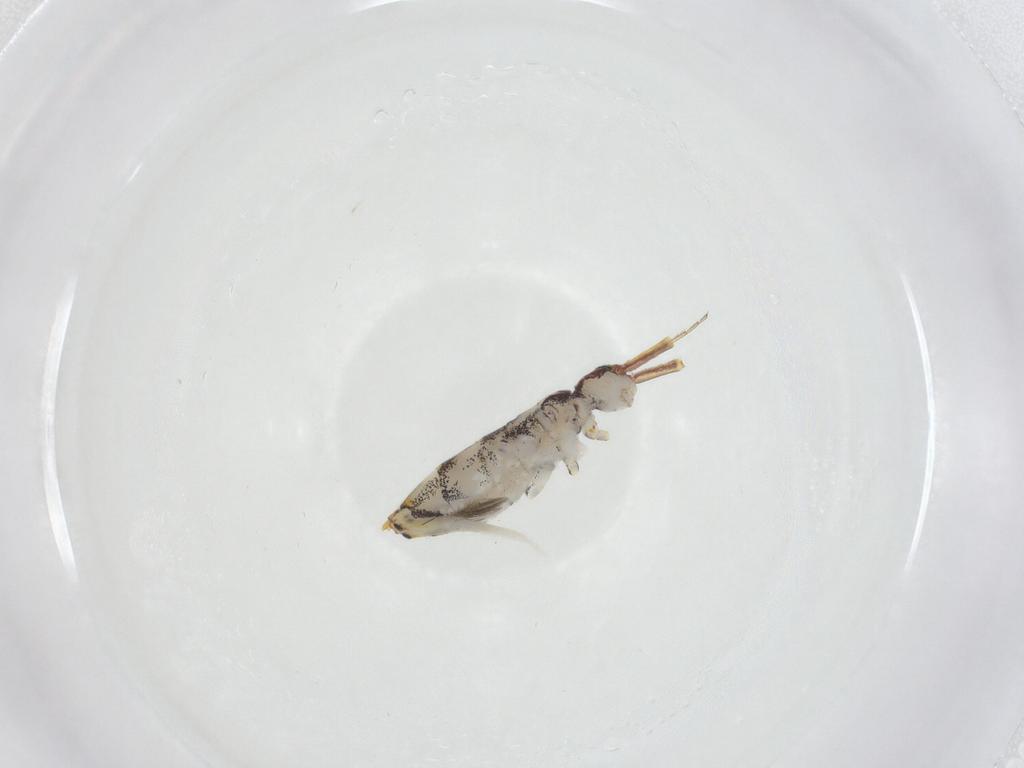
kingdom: Animalia
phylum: Arthropoda
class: Collembola
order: Entomobryomorpha
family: Entomobryidae
